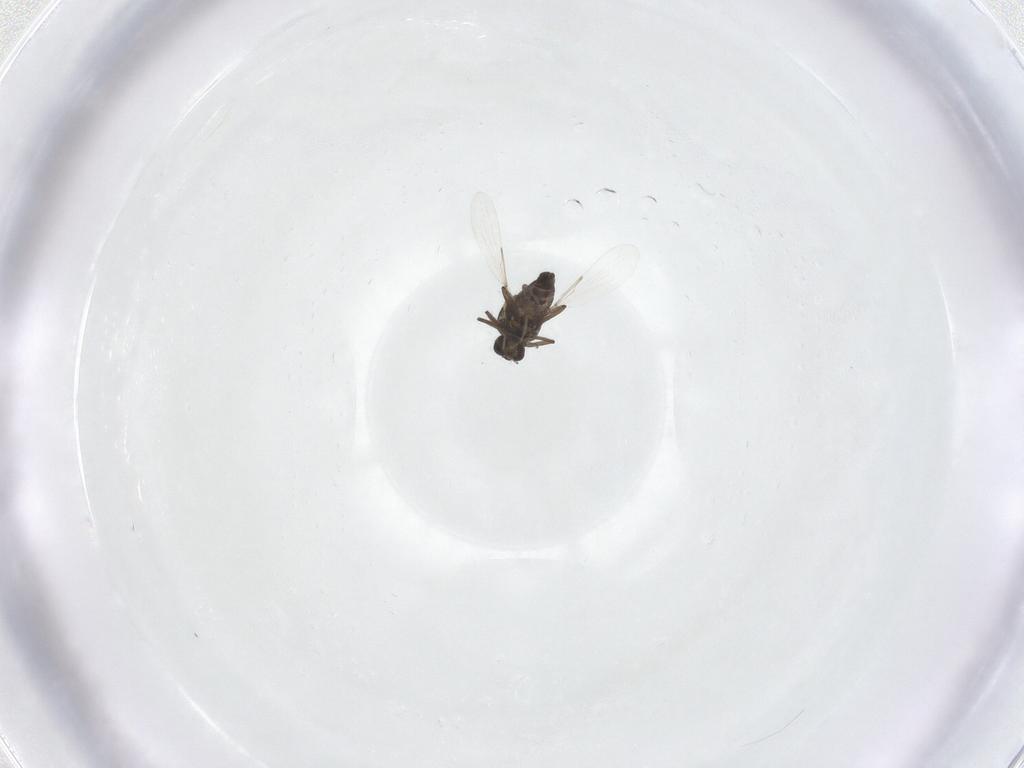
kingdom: Animalia
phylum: Arthropoda
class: Insecta
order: Diptera
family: Ceratopogonidae
